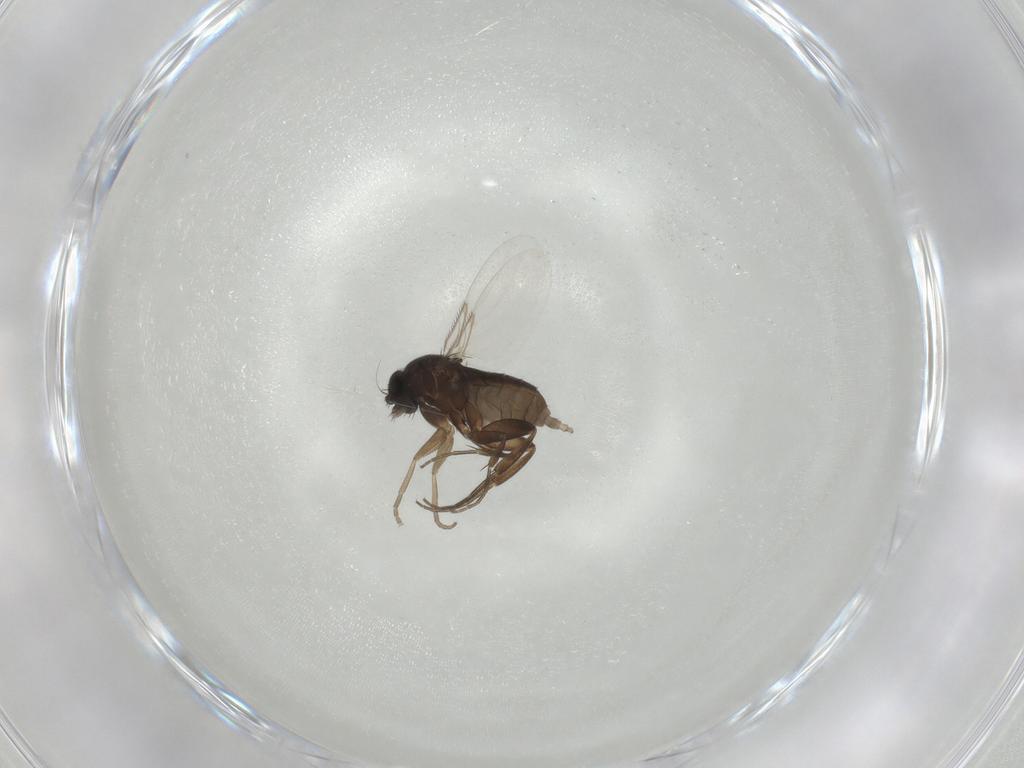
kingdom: Animalia
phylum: Arthropoda
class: Insecta
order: Diptera
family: Phoridae
